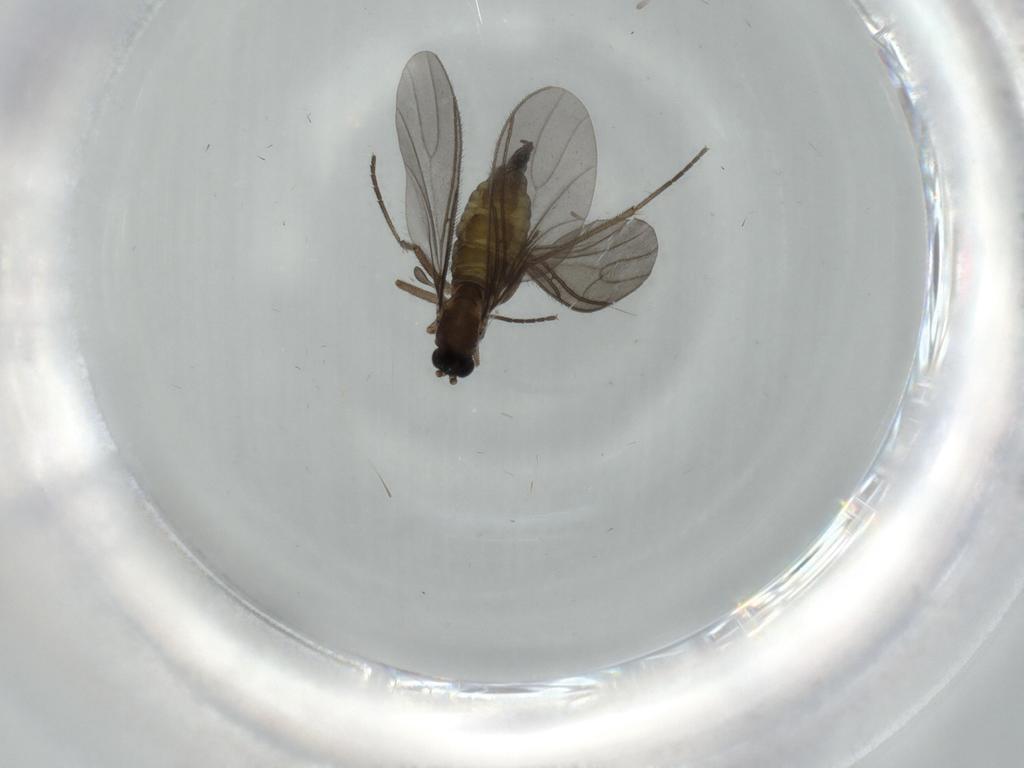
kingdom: Animalia
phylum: Arthropoda
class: Insecta
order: Diptera
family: Sciaridae
